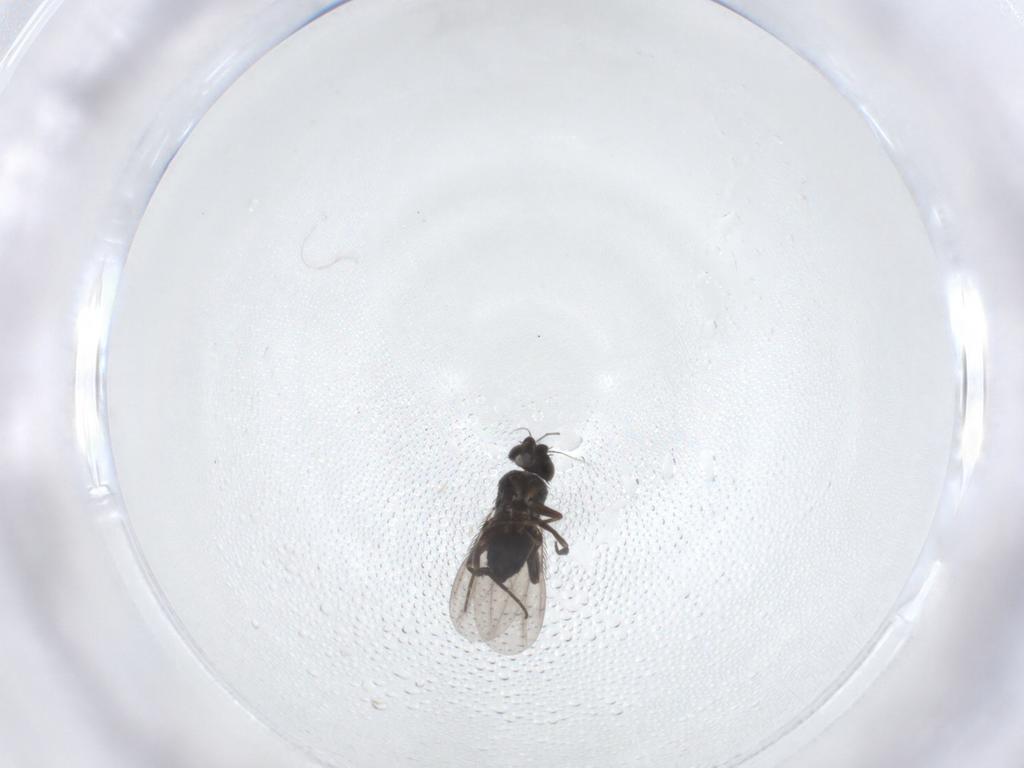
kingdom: Animalia
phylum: Arthropoda
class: Insecta
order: Diptera
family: Phoridae
